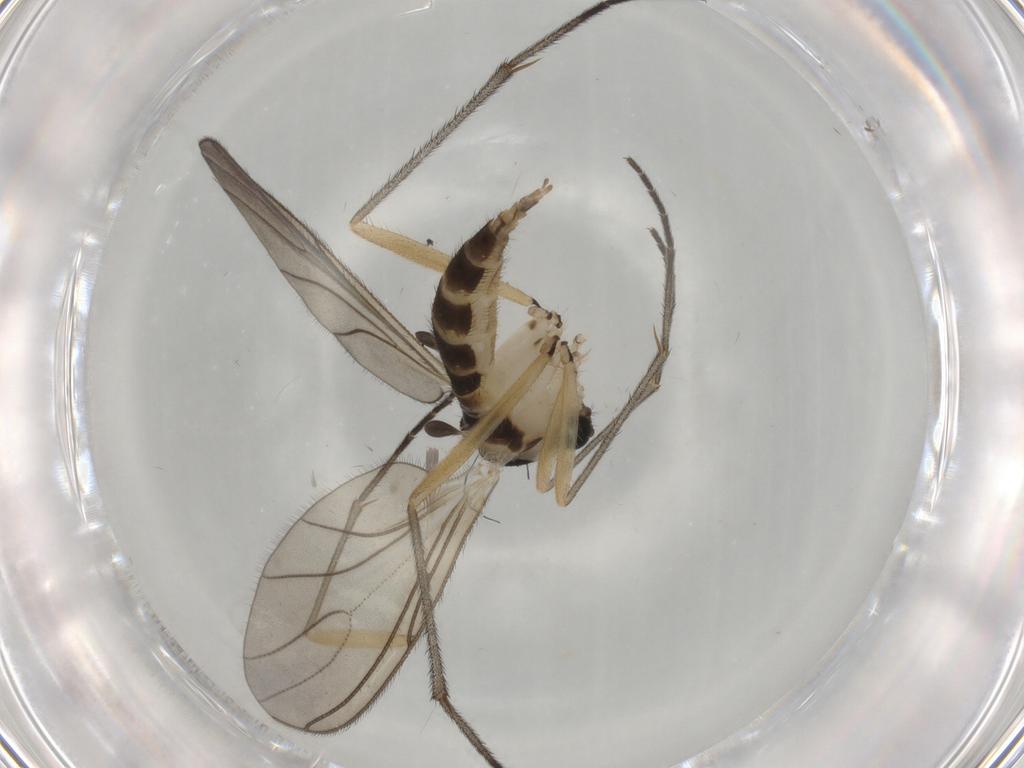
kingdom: Animalia
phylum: Arthropoda
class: Insecta
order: Diptera
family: Sciaridae
